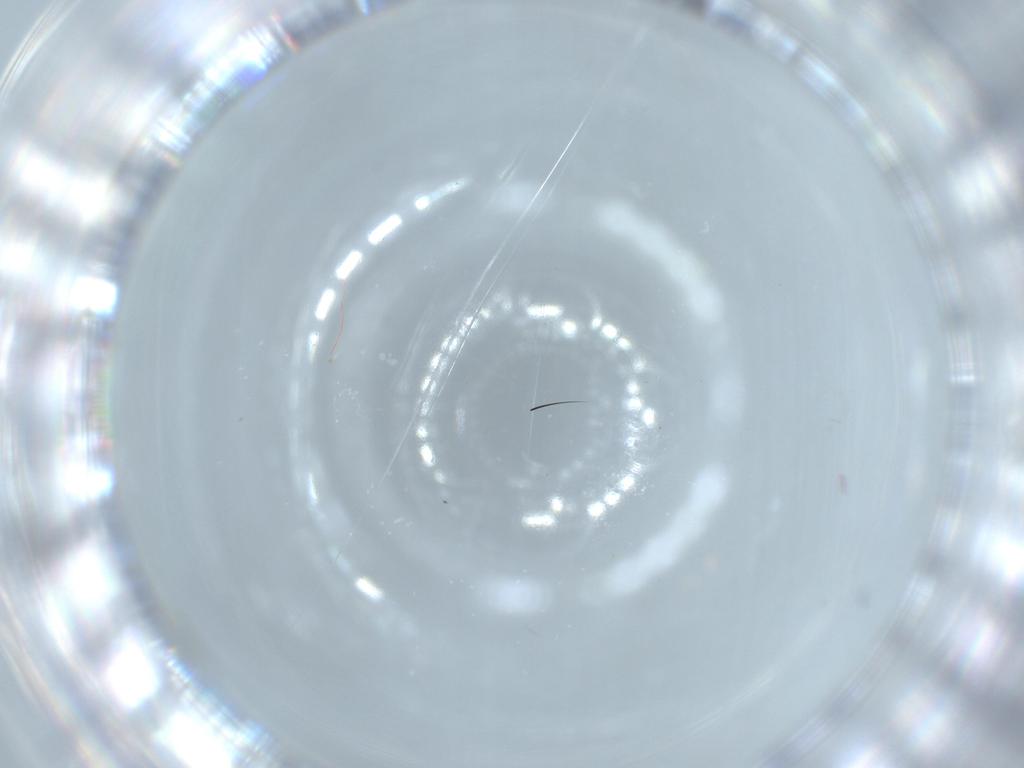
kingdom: Animalia
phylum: Arthropoda
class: Insecta
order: Diptera
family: Cecidomyiidae
